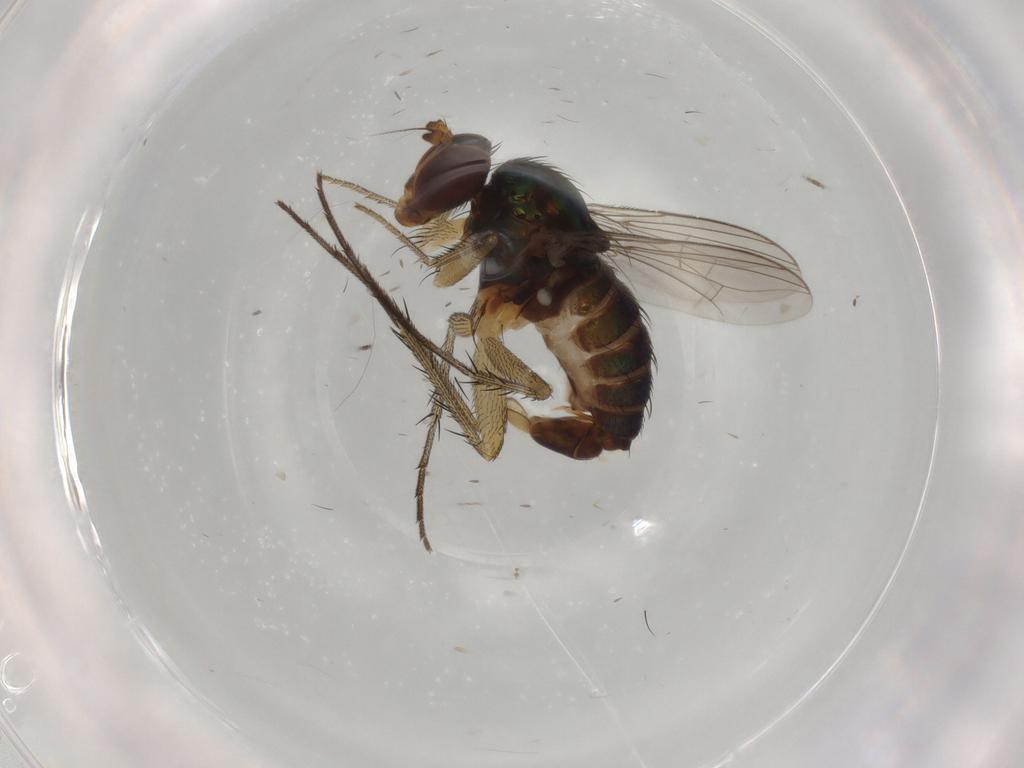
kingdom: Animalia
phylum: Arthropoda
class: Insecta
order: Diptera
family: Dolichopodidae
